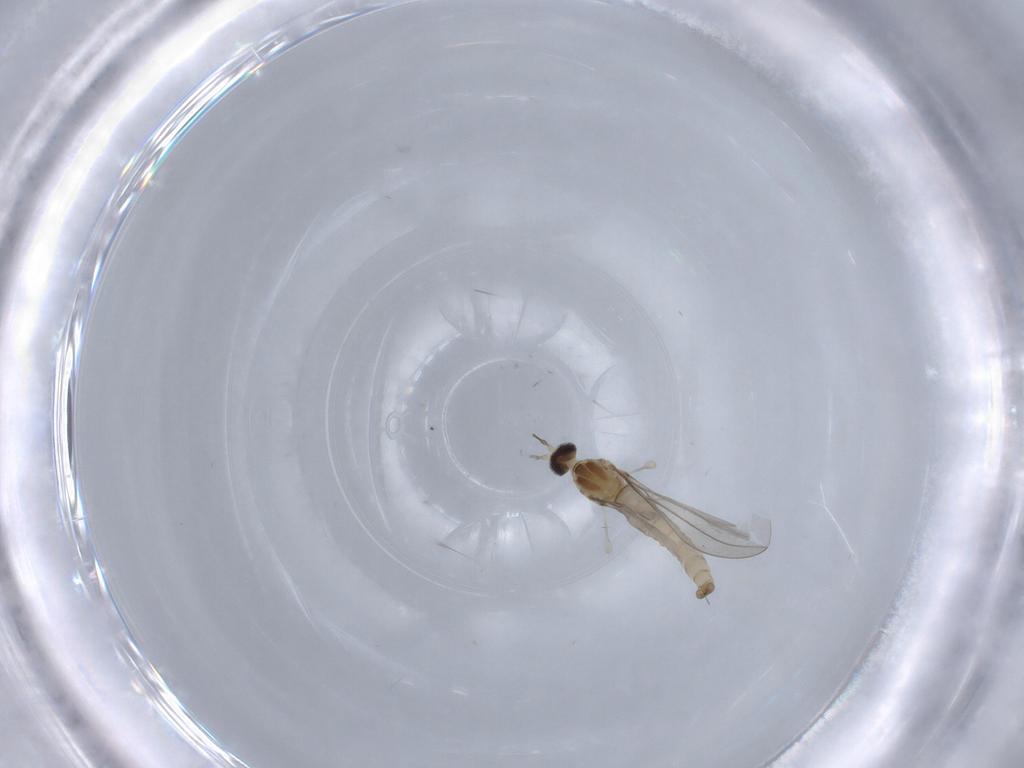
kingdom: Animalia
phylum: Arthropoda
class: Insecta
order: Diptera
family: Cecidomyiidae
